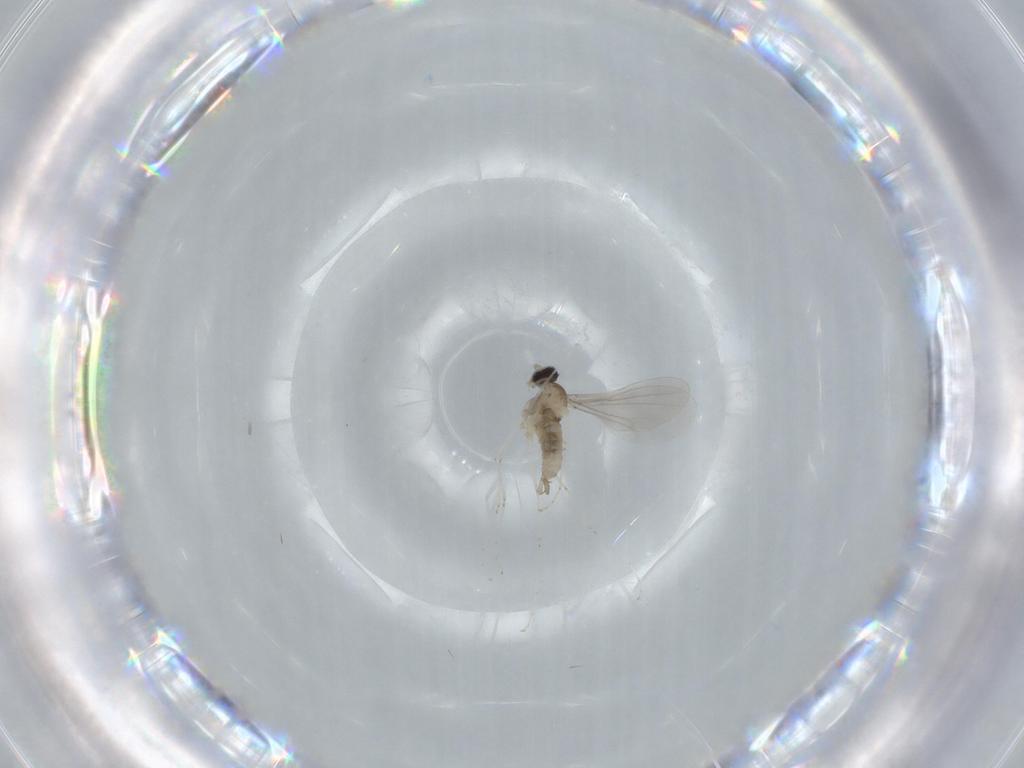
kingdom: Animalia
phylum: Arthropoda
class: Insecta
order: Diptera
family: Cecidomyiidae
